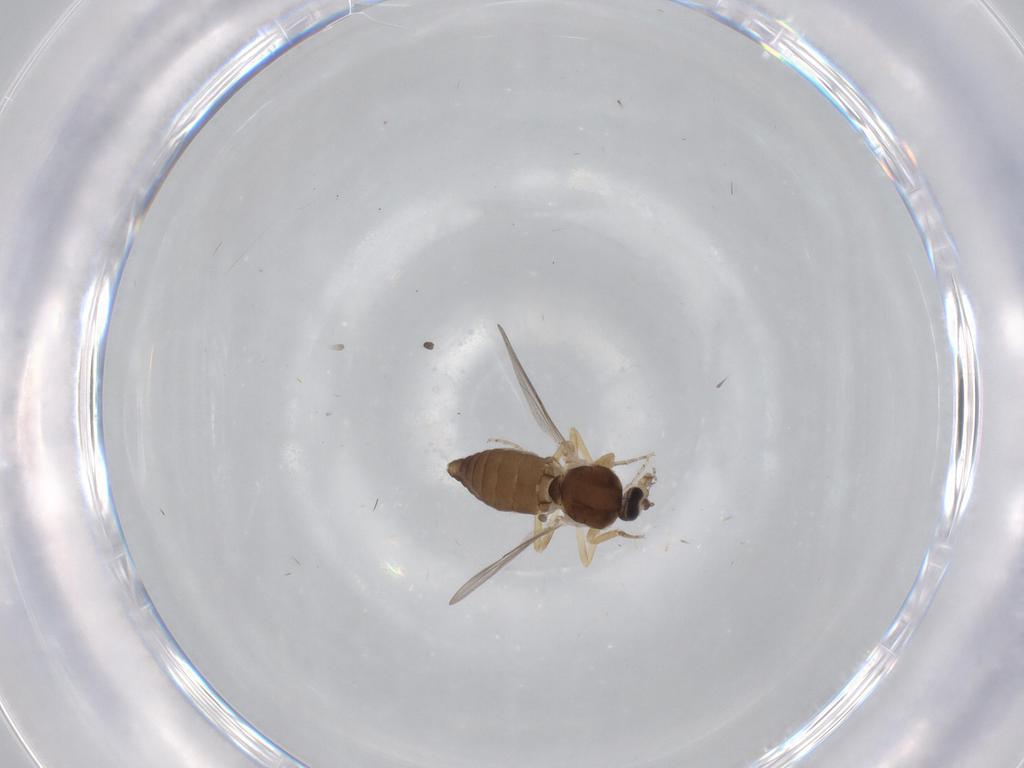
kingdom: Animalia
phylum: Arthropoda
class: Insecta
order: Diptera
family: Ceratopogonidae
